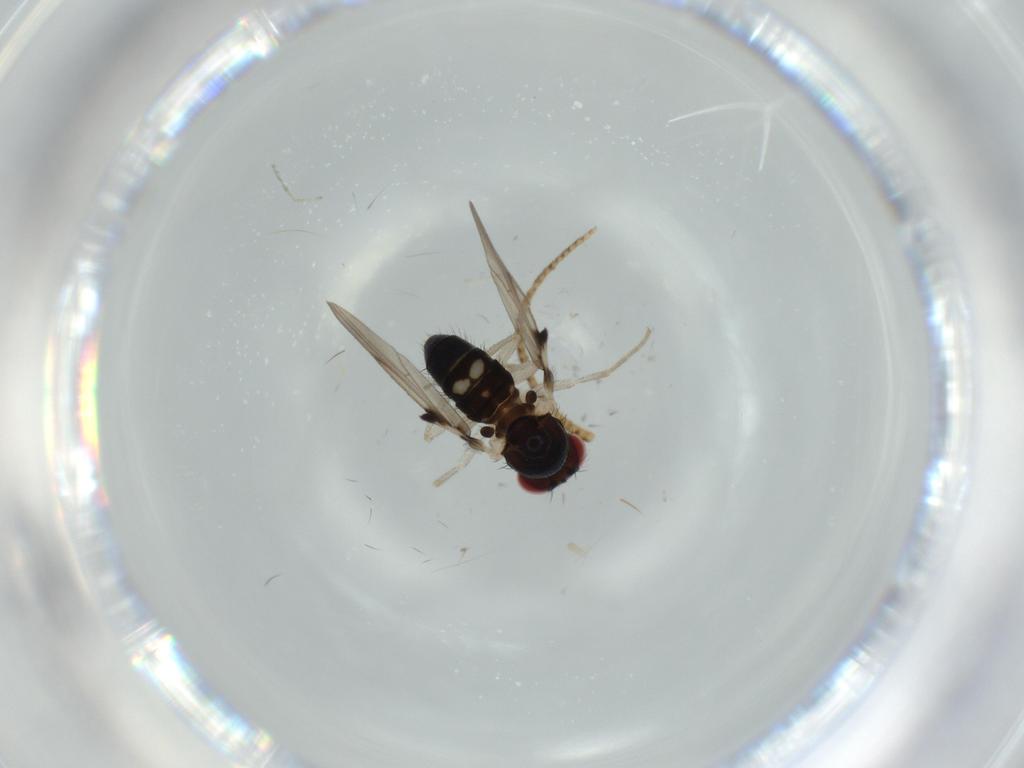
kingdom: Animalia
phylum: Arthropoda
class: Insecta
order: Diptera
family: Drosophilidae
